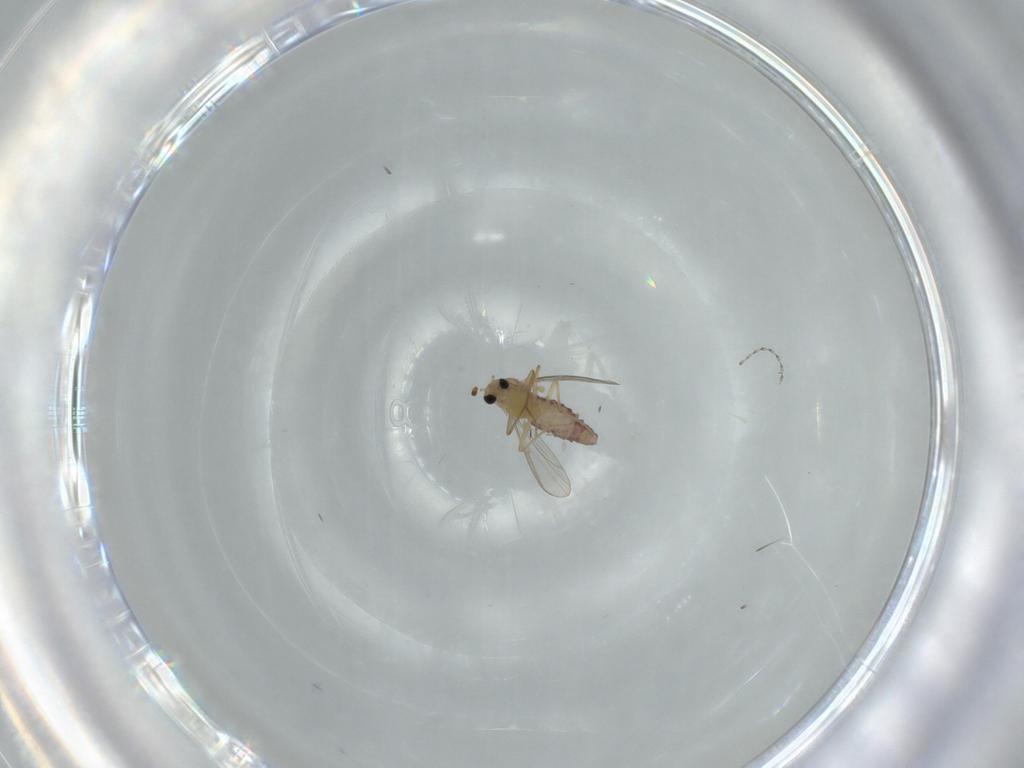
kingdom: Animalia
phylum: Arthropoda
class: Insecta
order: Diptera
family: Chironomidae
